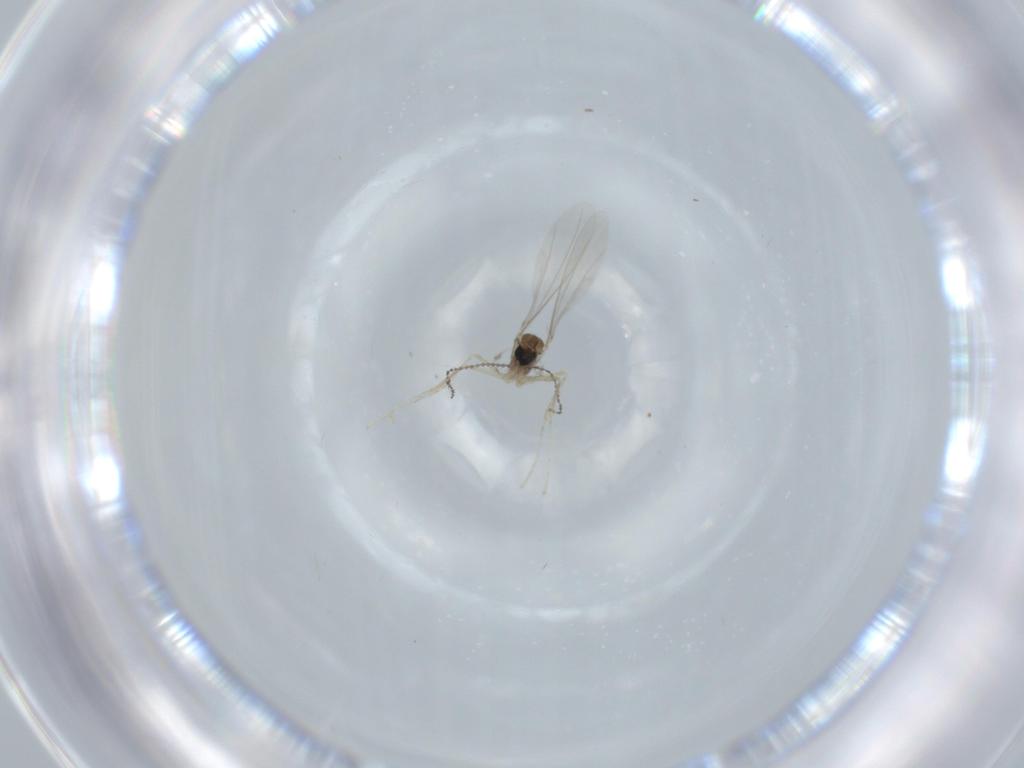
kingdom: Animalia
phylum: Arthropoda
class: Insecta
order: Diptera
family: Cecidomyiidae
